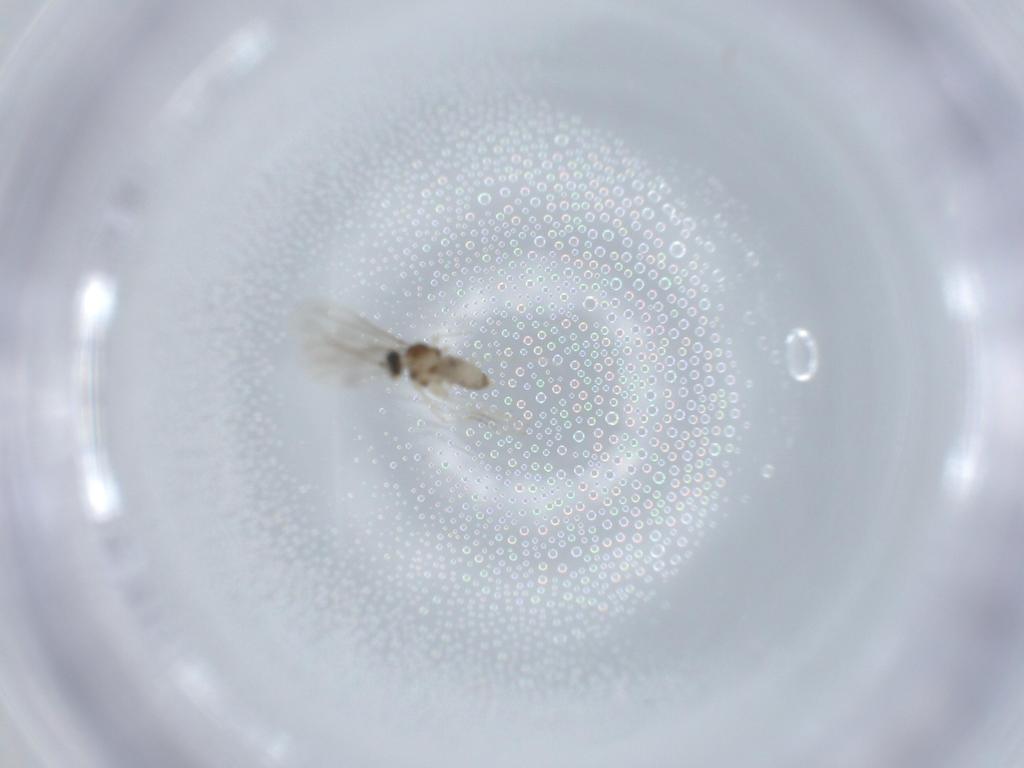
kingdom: Animalia
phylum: Arthropoda
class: Insecta
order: Diptera
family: Cecidomyiidae
